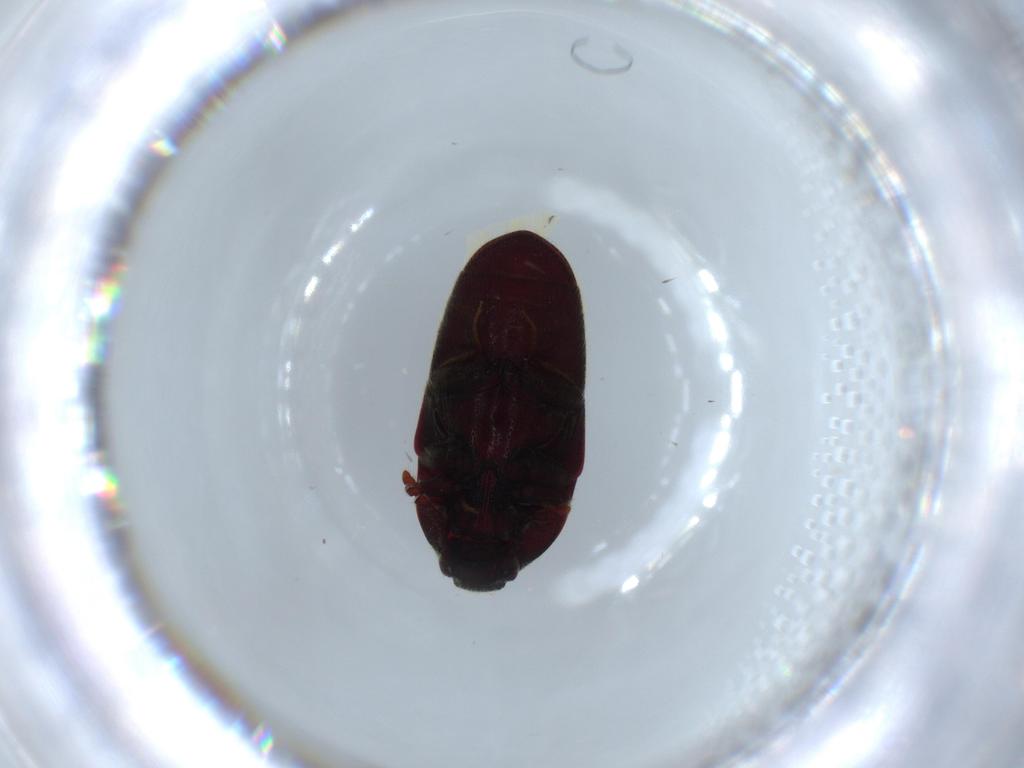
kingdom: Animalia
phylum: Arthropoda
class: Insecta
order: Coleoptera
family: Throscidae
